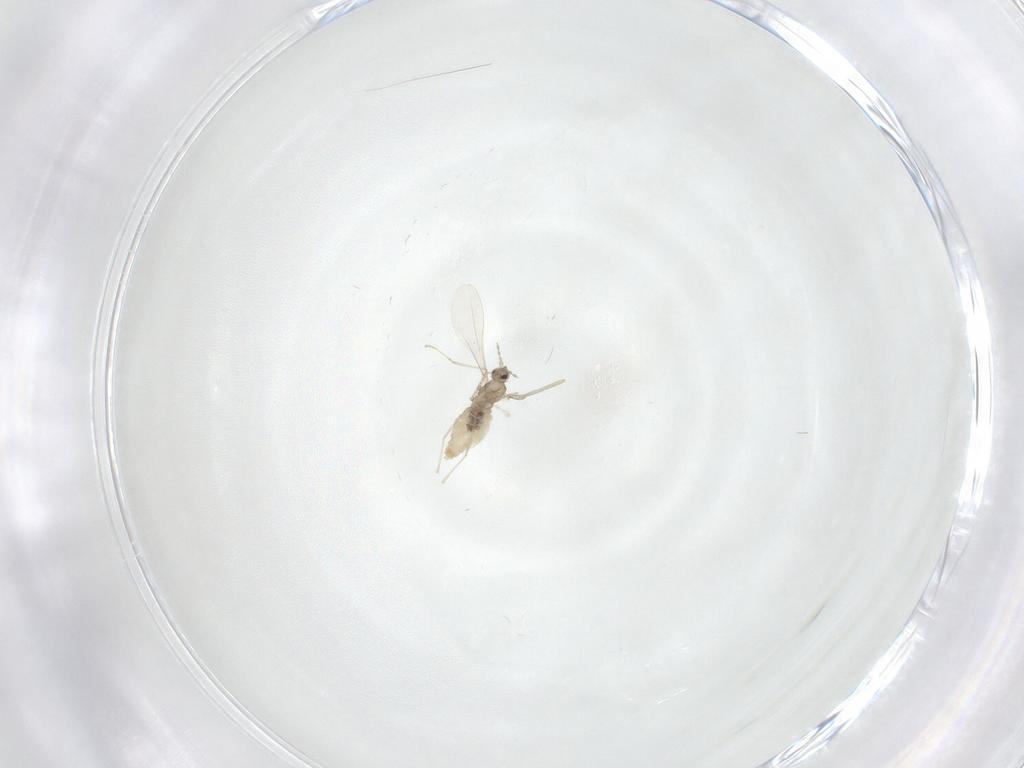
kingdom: Animalia
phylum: Arthropoda
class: Insecta
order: Diptera
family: Cecidomyiidae
